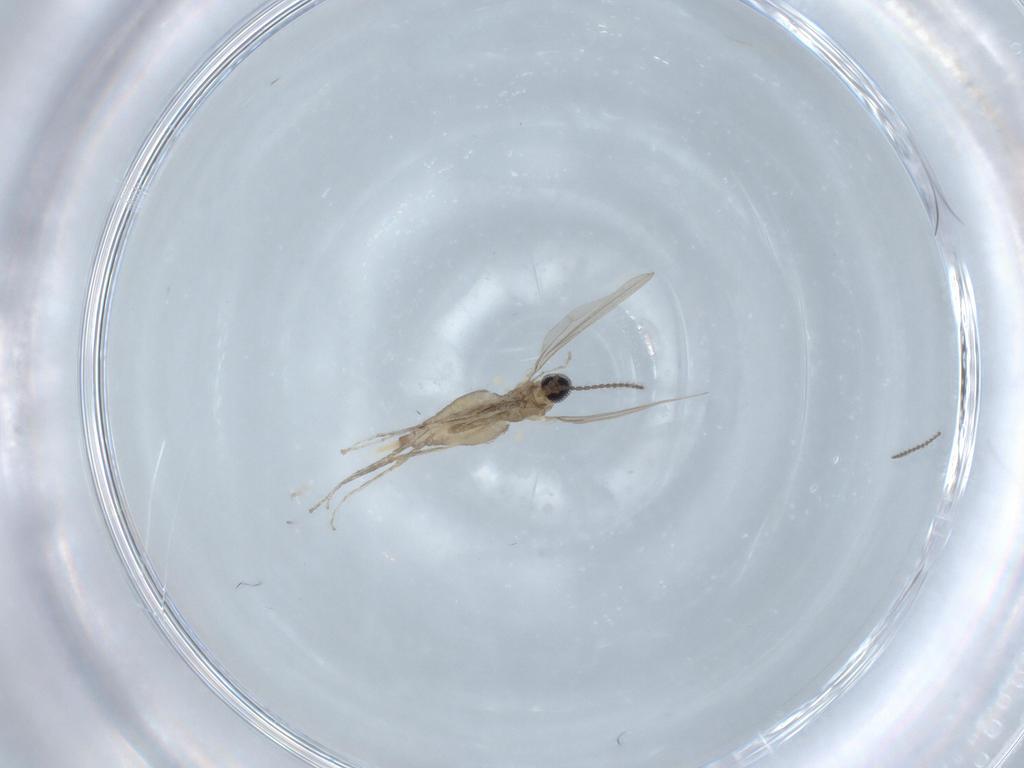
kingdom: Animalia
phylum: Arthropoda
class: Insecta
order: Diptera
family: Cecidomyiidae
